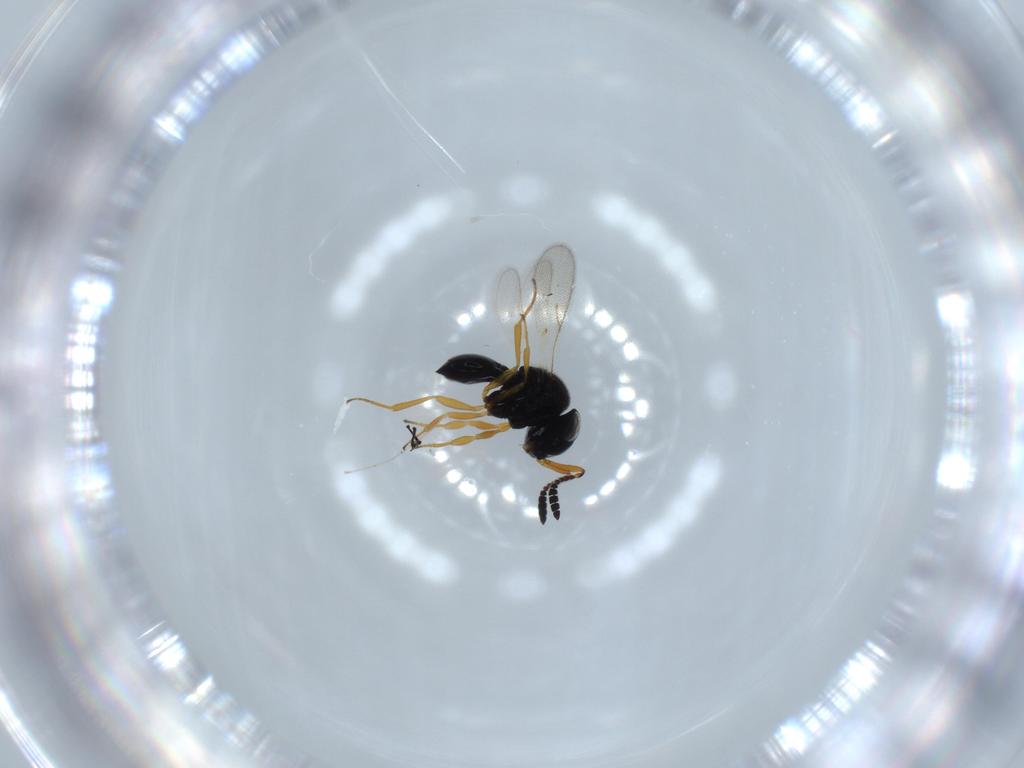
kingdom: Animalia
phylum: Arthropoda
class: Insecta
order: Hymenoptera
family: Scelionidae
